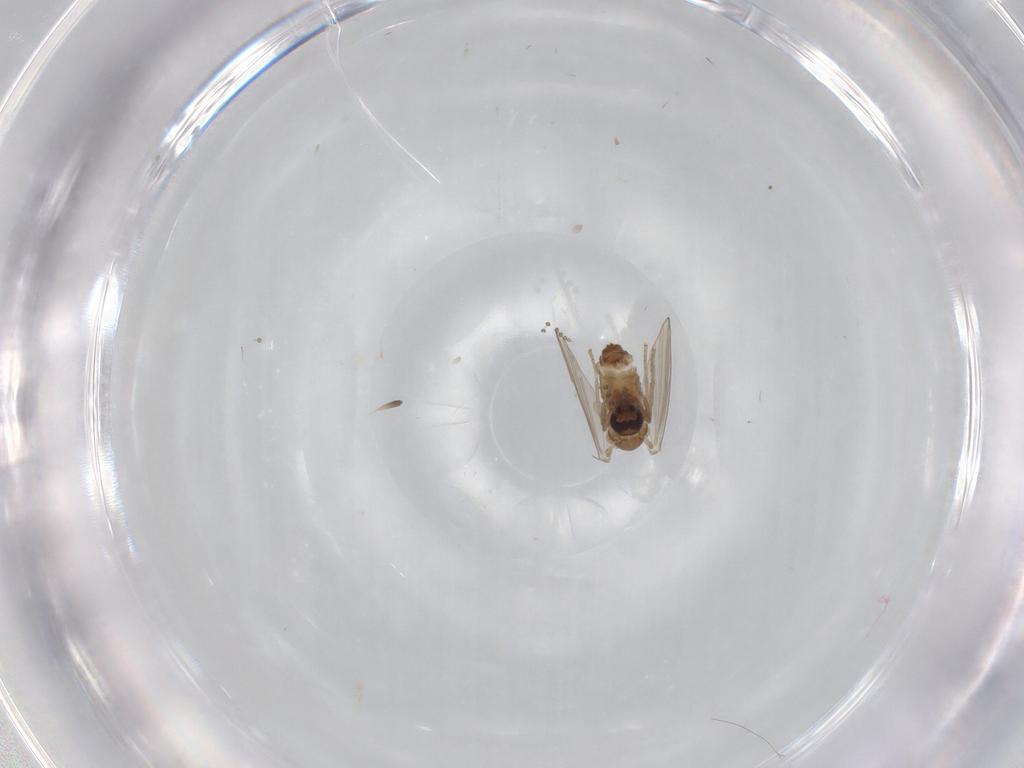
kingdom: Animalia
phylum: Arthropoda
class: Insecta
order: Diptera
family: Psychodidae
